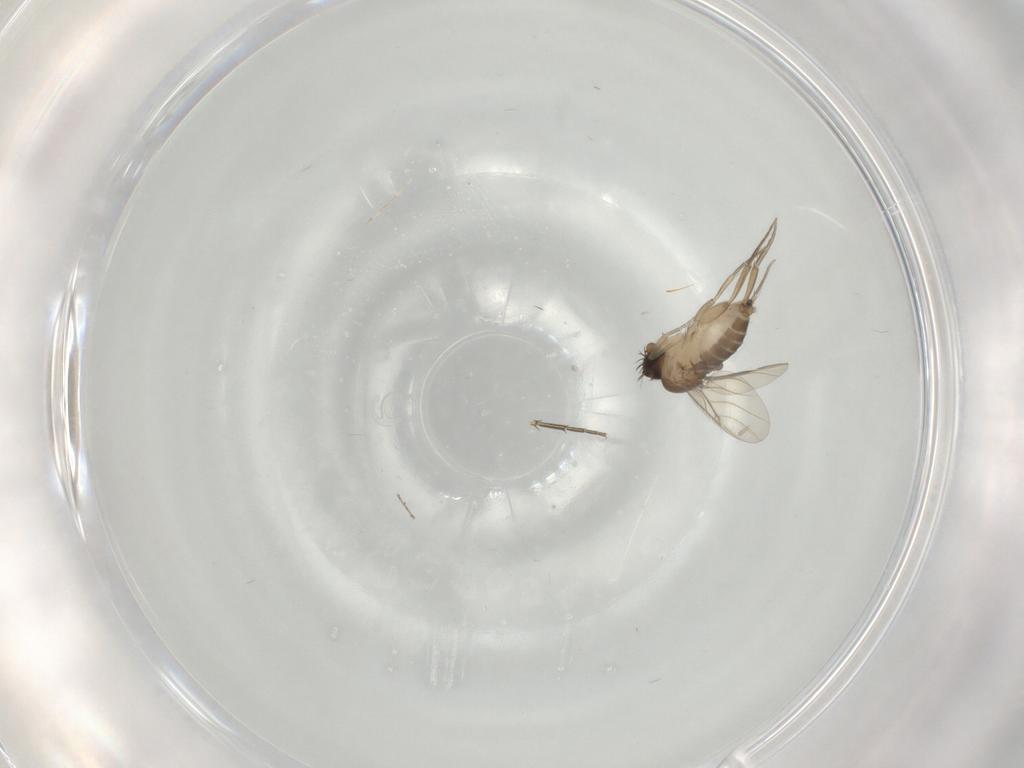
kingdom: Animalia
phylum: Arthropoda
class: Insecta
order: Diptera
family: Phoridae
